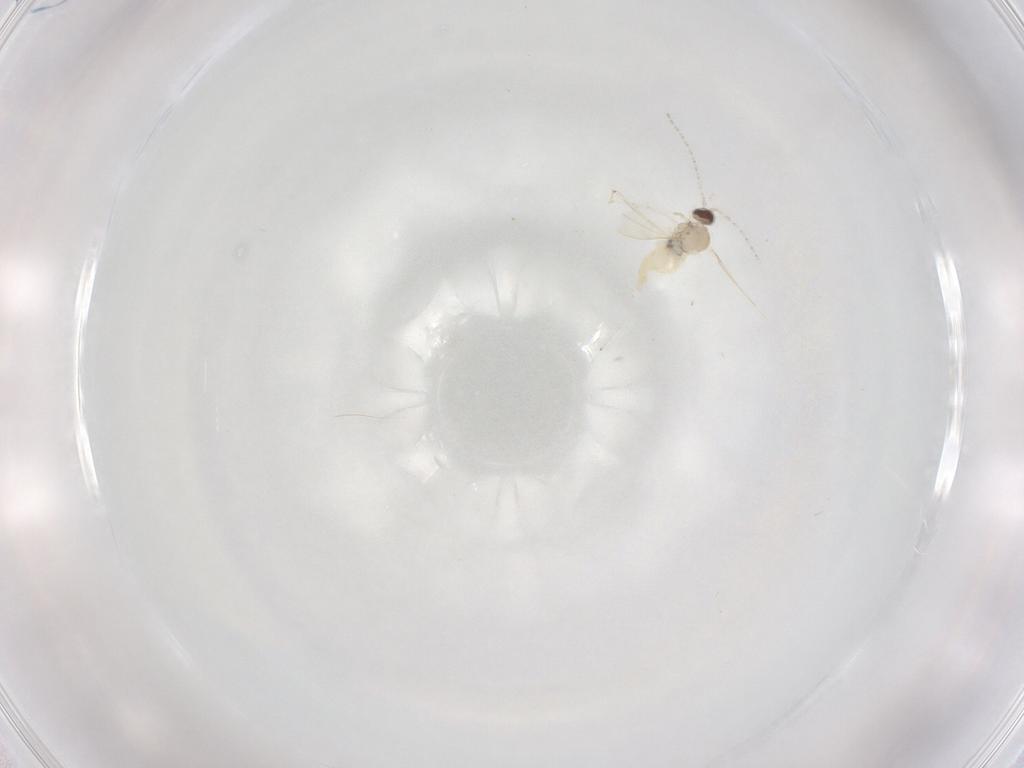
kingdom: Animalia
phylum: Arthropoda
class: Insecta
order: Diptera
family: Cecidomyiidae
